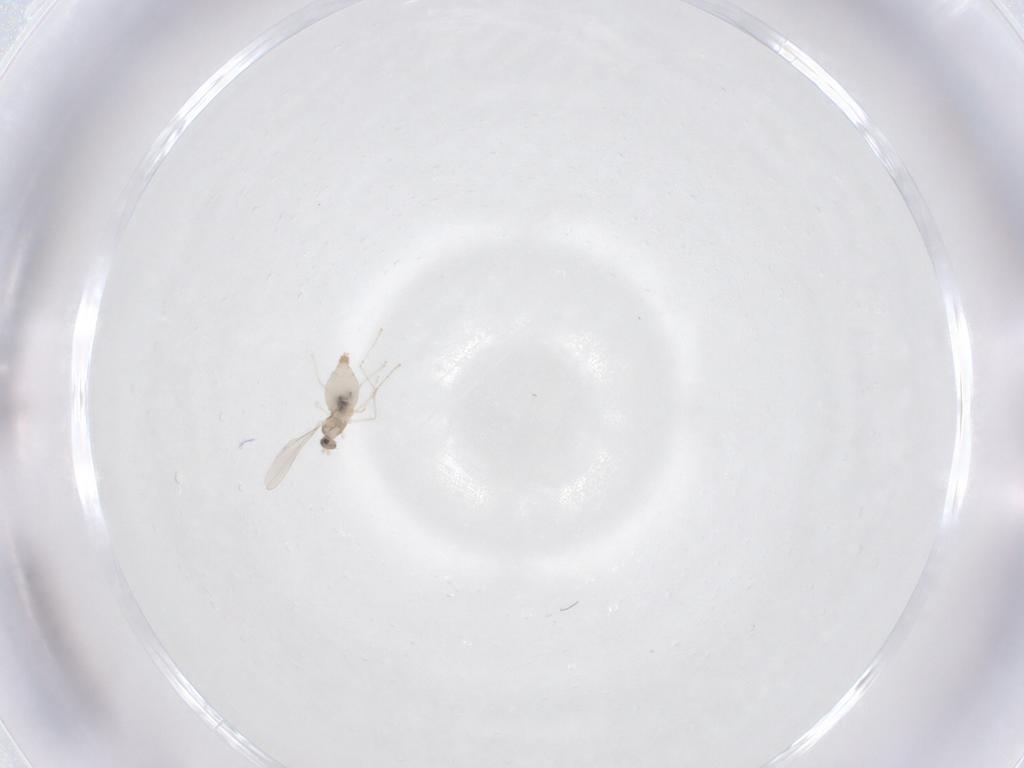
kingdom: Animalia
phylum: Arthropoda
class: Insecta
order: Diptera
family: Cecidomyiidae
